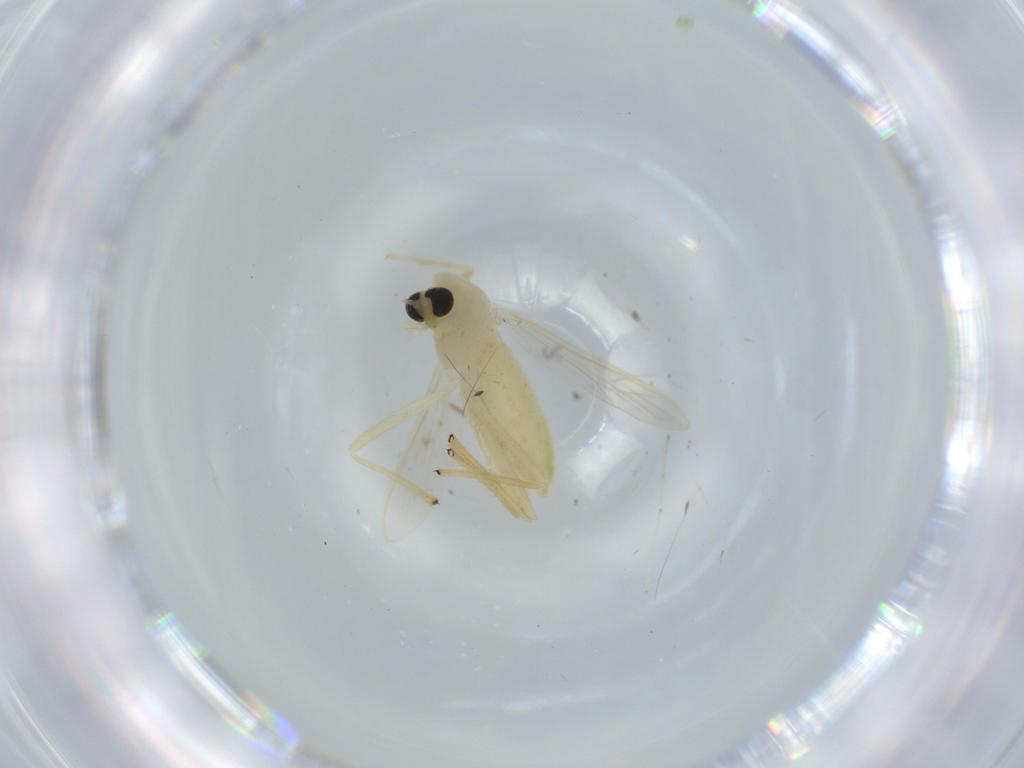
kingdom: Animalia
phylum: Arthropoda
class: Insecta
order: Diptera
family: Chironomidae
